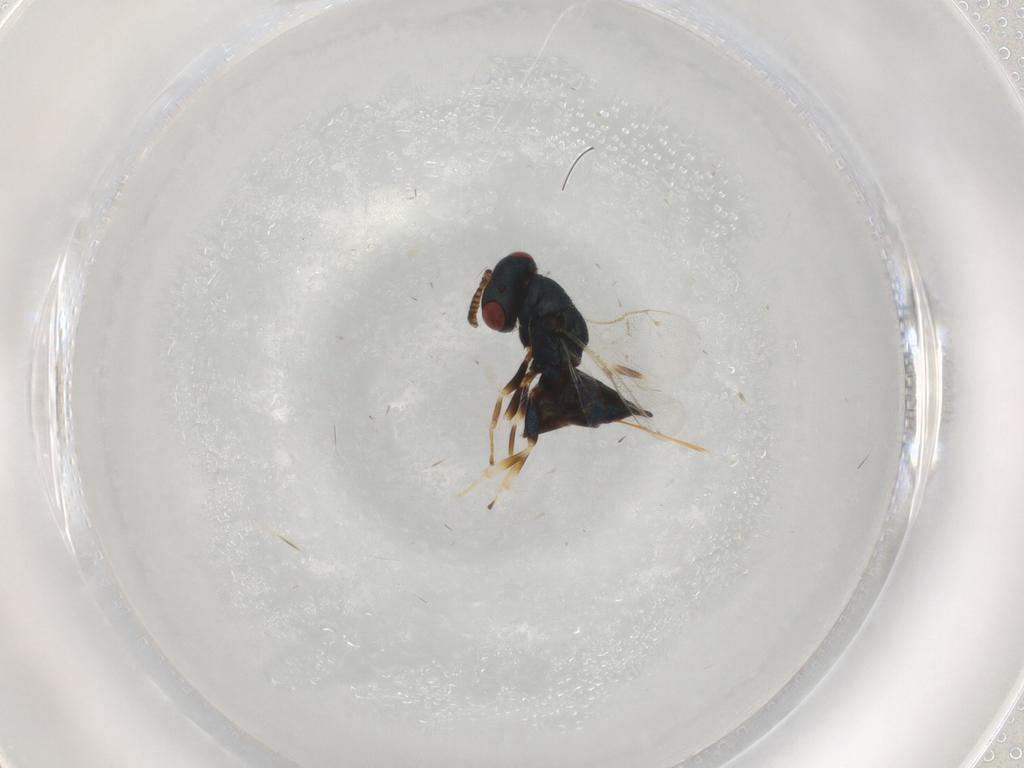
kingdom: Animalia
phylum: Arthropoda
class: Insecta
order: Hymenoptera
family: Pteromalidae
